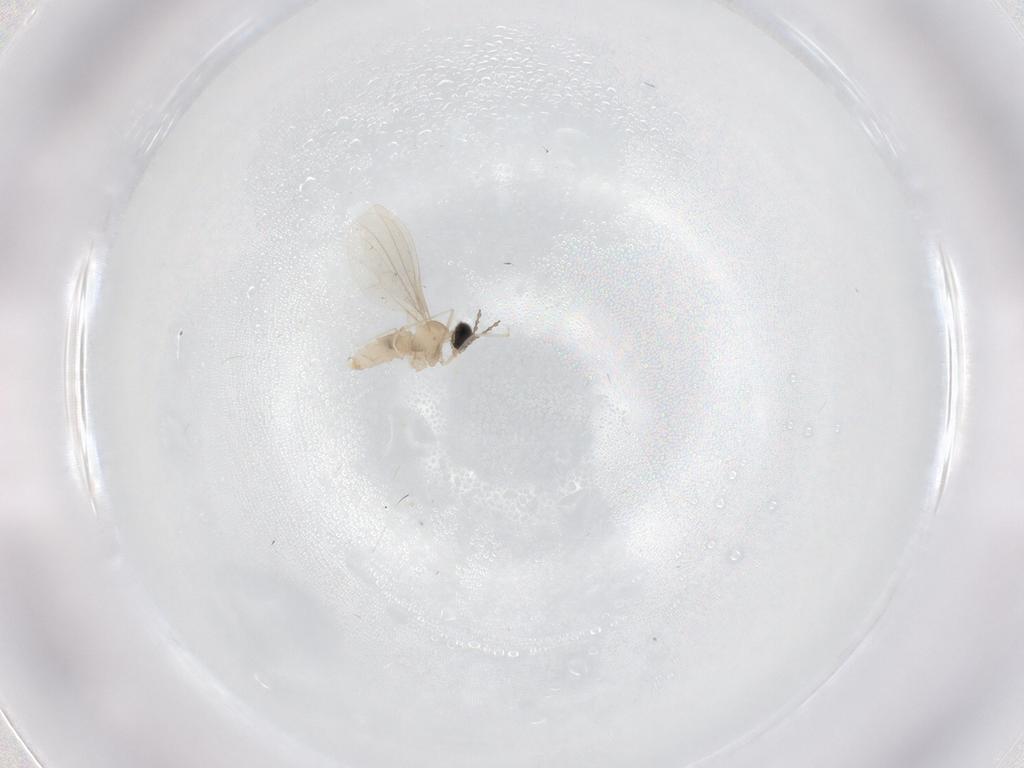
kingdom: Animalia
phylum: Arthropoda
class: Insecta
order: Diptera
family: Cecidomyiidae
